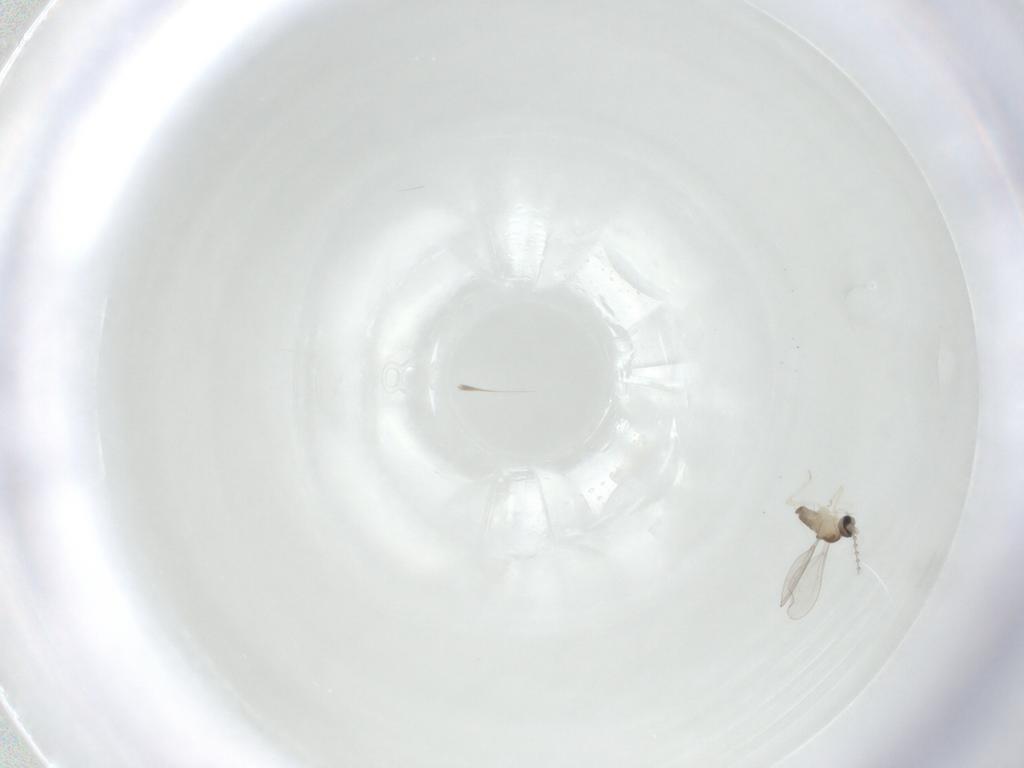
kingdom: Animalia
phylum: Arthropoda
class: Insecta
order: Diptera
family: Cecidomyiidae
